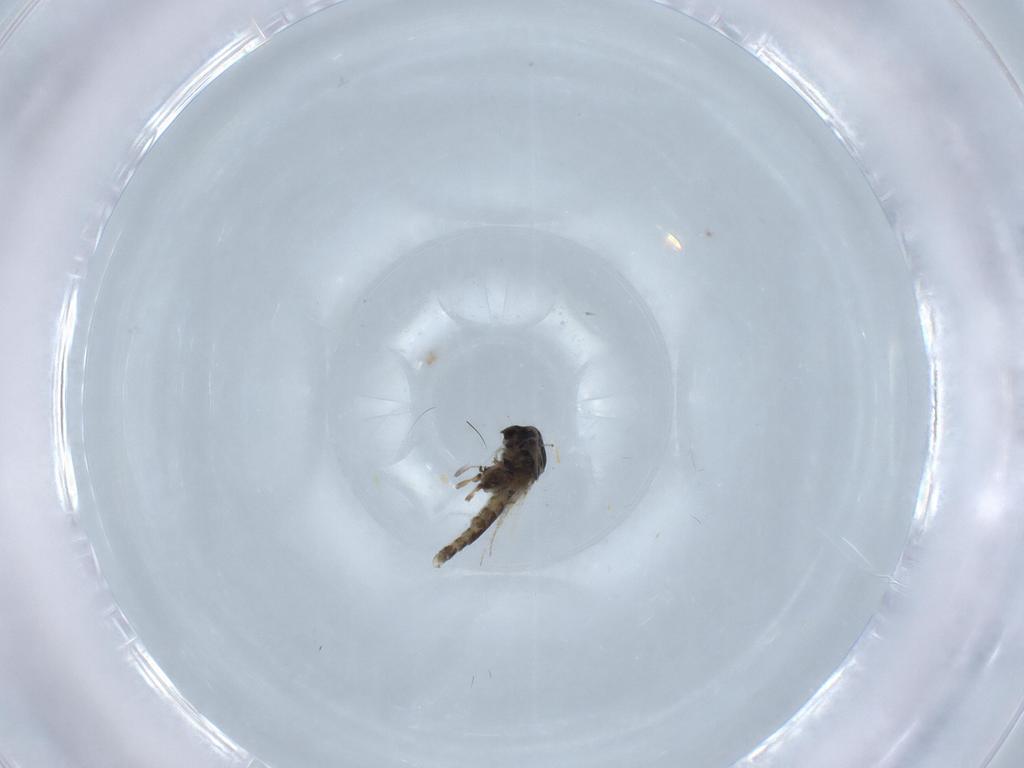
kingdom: Animalia
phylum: Arthropoda
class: Insecta
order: Diptera
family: Chironomidae
